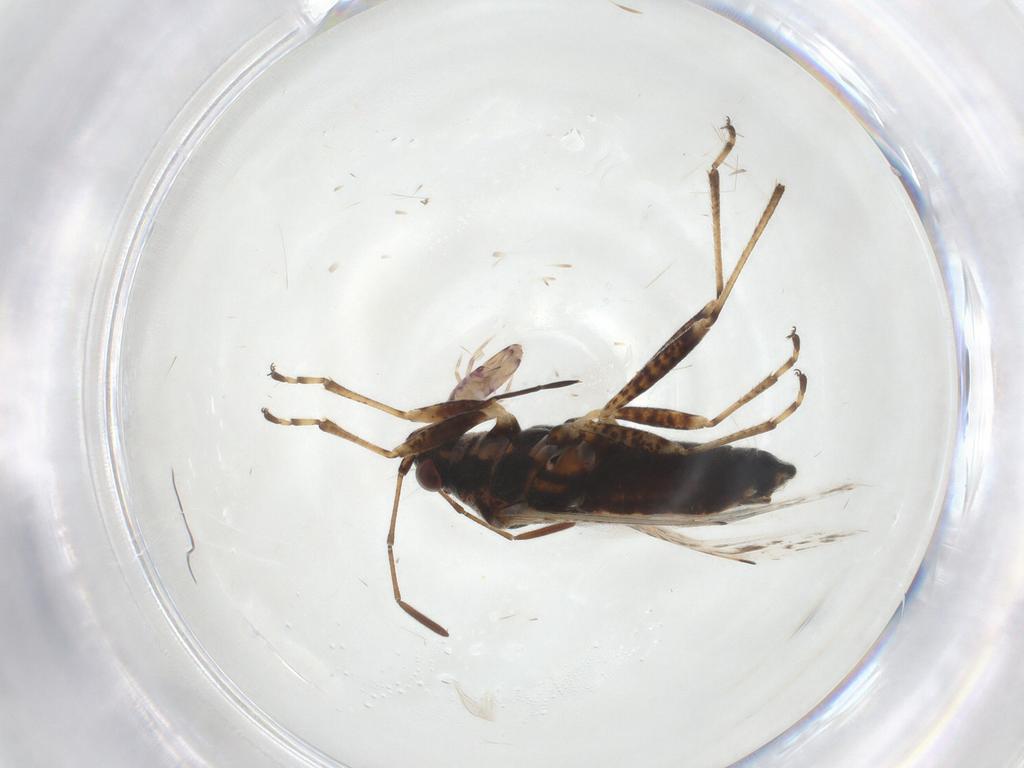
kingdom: Animalia
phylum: Arthropoda
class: Insecta
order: Hemiptera
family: Lygaeidae
